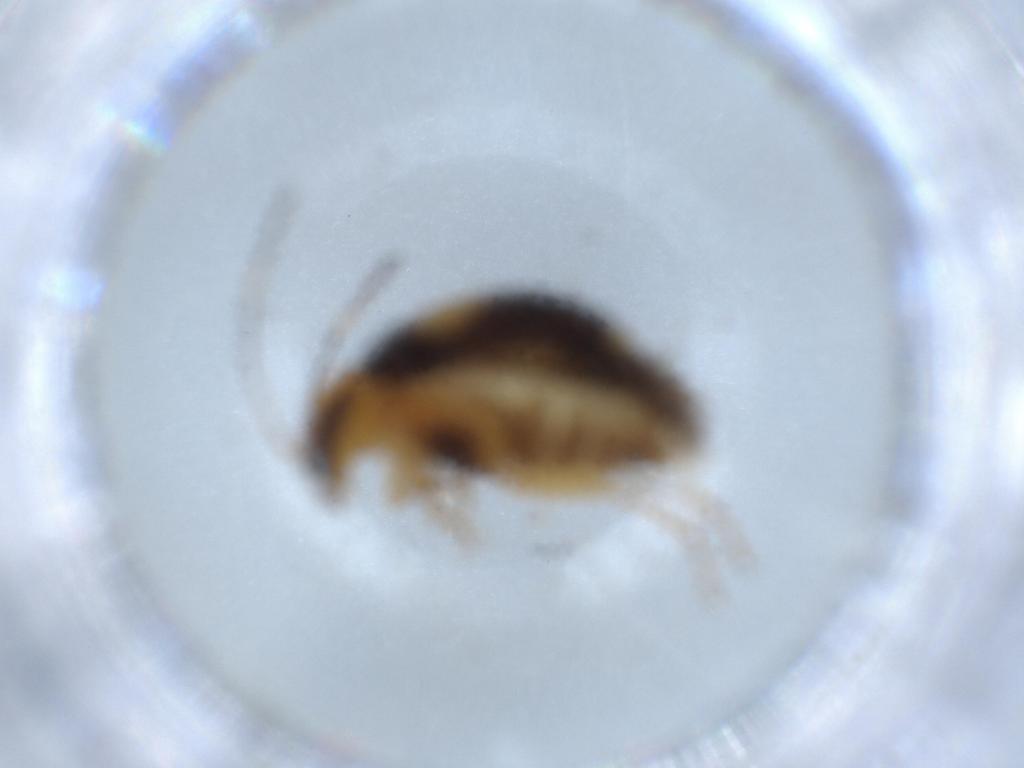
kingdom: Animalia
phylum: Arthropoda
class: Insecta
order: Coleoptera
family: Chrysomelidae
